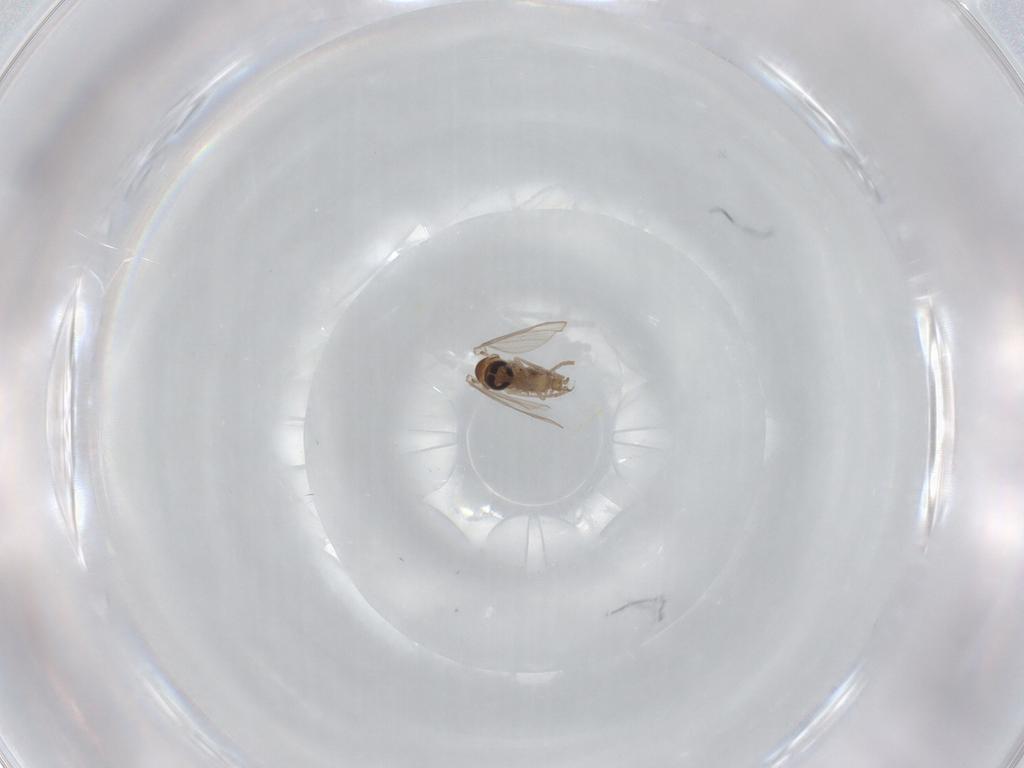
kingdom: Animalia
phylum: Arthropoda
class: Insecta
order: Diptera
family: Psychodidae
